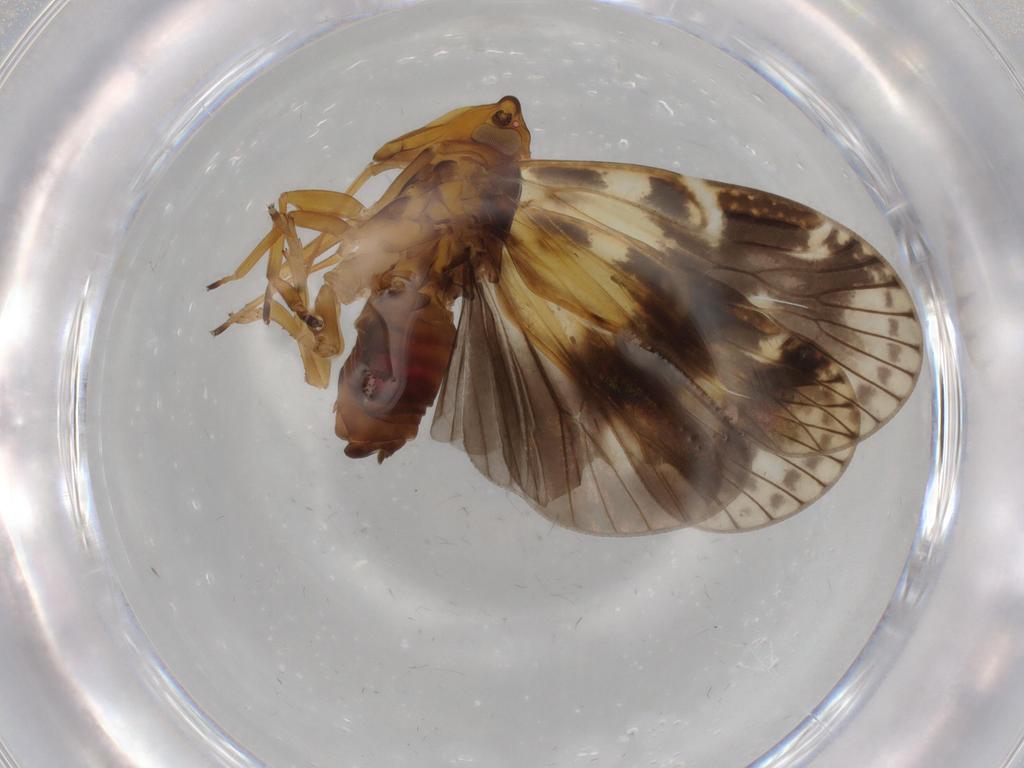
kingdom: Animalia
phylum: Arthropoda
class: Insecta
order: Hemiptera
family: Cixiidae
